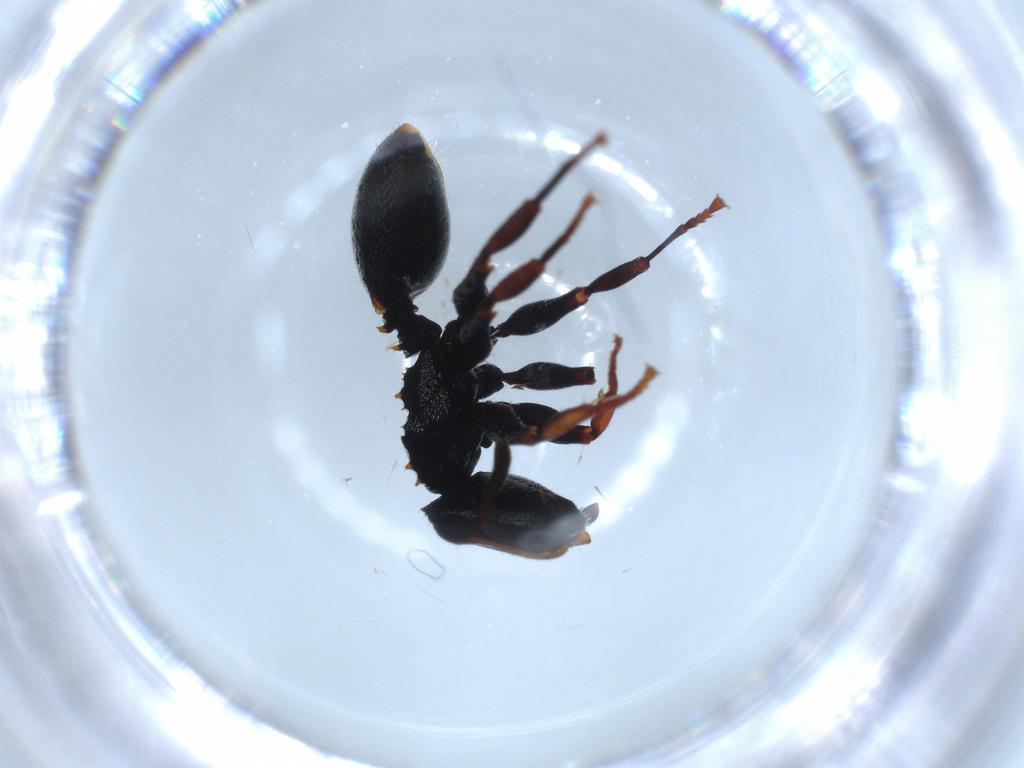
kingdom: Animalia
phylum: Arthropoda
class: Insecta
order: Hymenoptera
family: Formicidae
